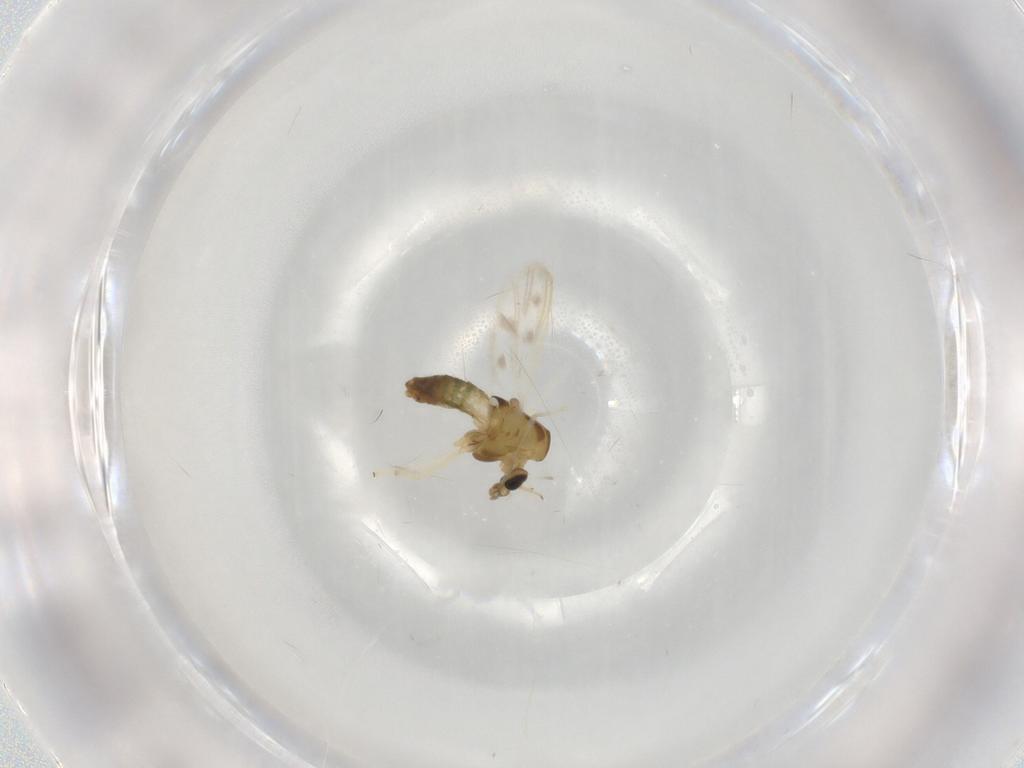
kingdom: Animalia
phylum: Arthropoda
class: Insecta
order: Diptera
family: Chironomidae
